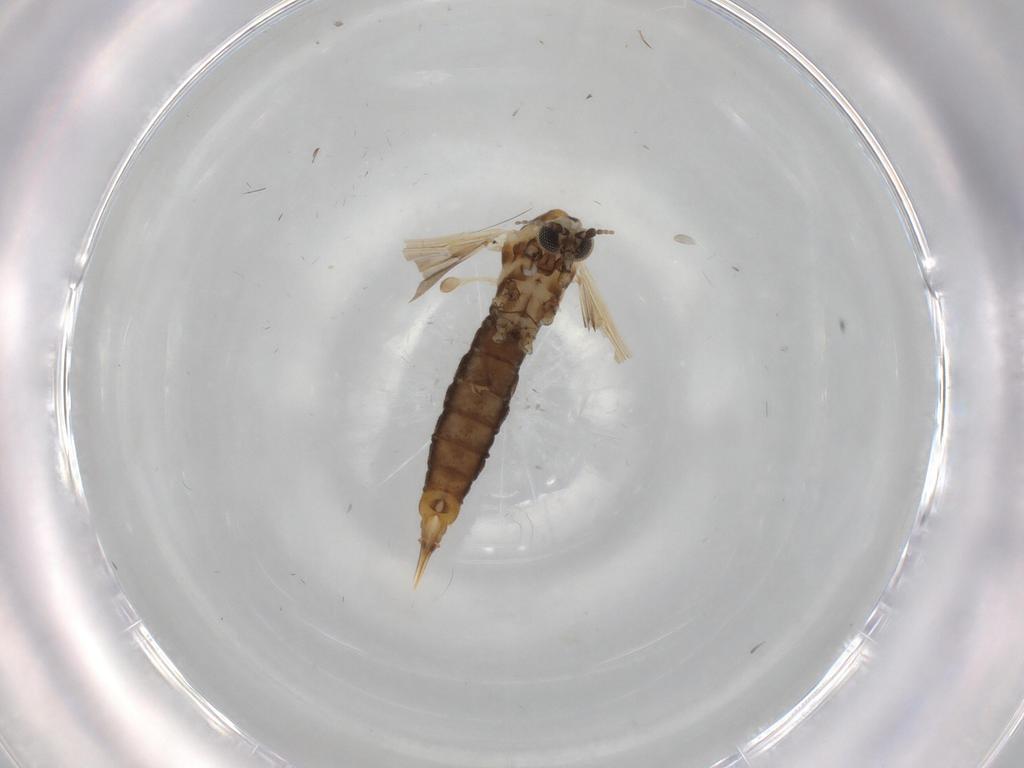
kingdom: Animalia
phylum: Arthropoda
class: Insecta
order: Diptera
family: Limoniidae
